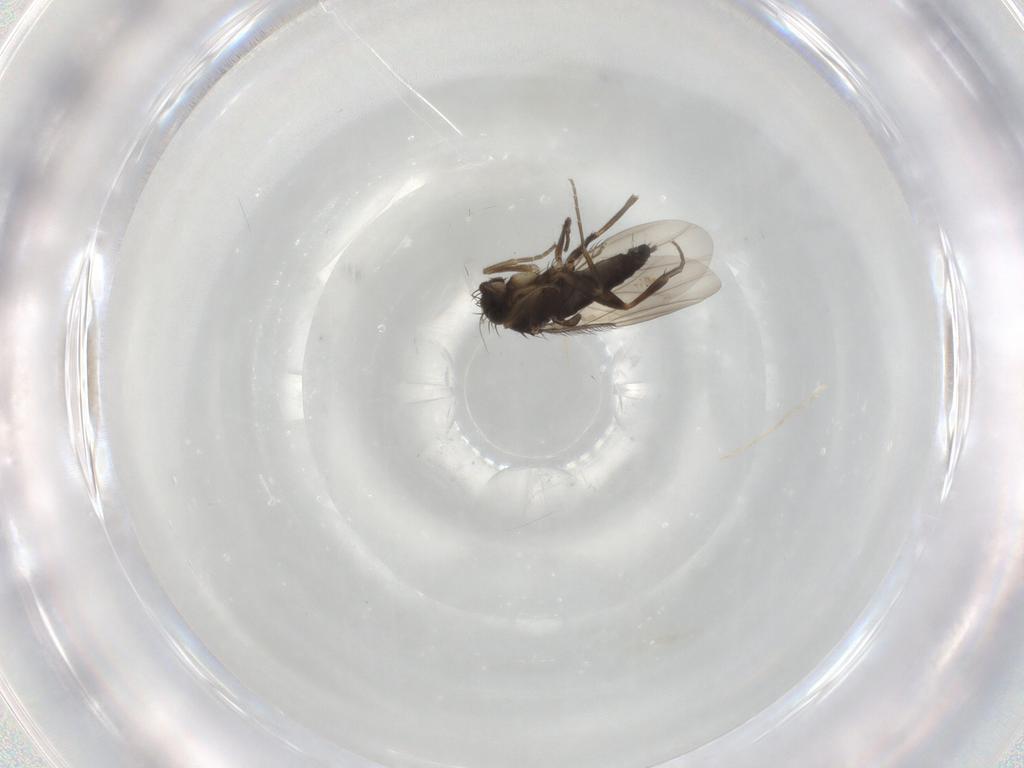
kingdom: Animalia
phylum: Arthropoda
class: Insecta
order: Diptera
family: Phoridae
